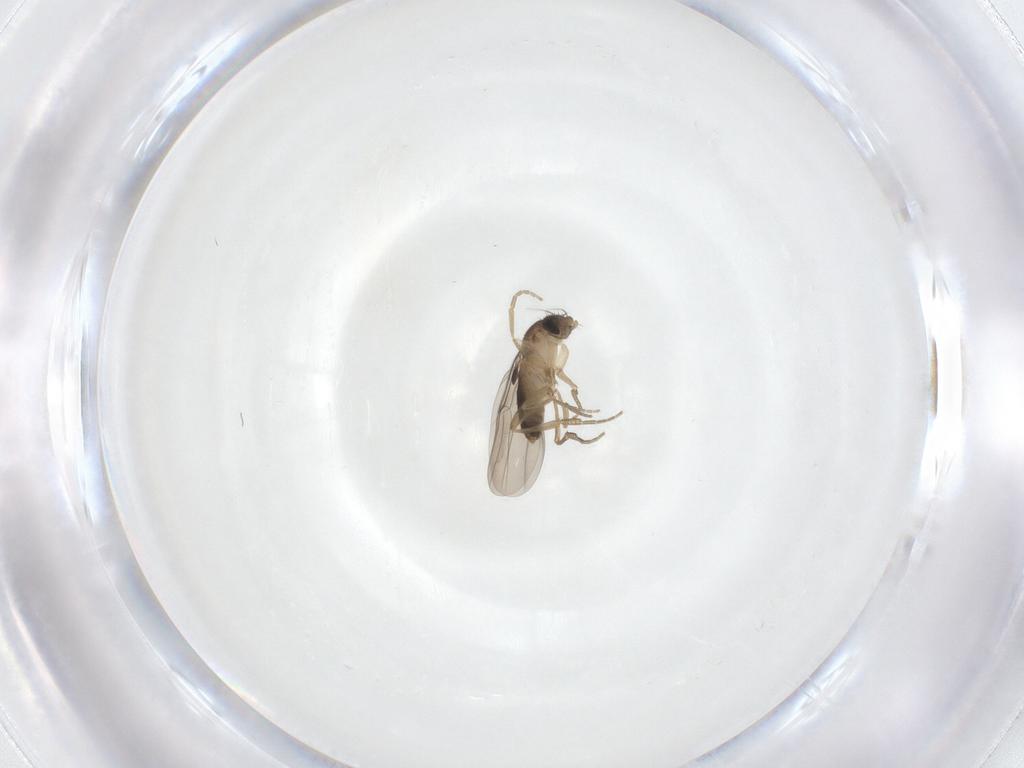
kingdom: Animalia
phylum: Arthropoda
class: Insecta
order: Diptera
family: Phoridae
